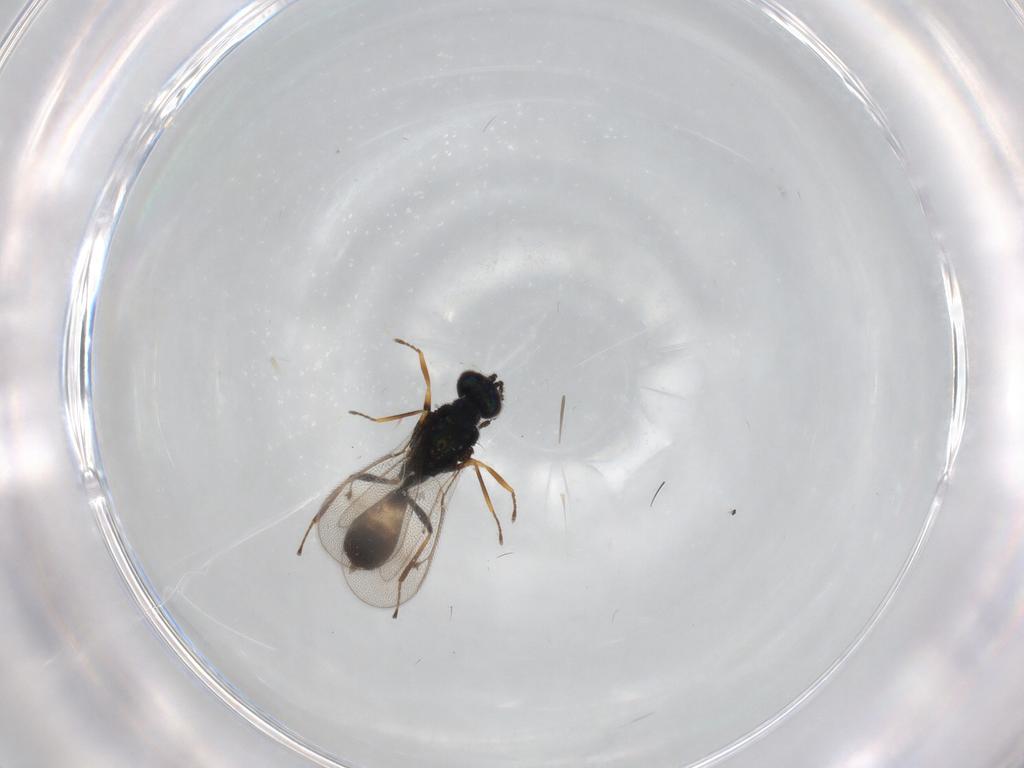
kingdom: Animalia
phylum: Arthropoda
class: Insecta
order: Hymenoptera
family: Eulophidae
